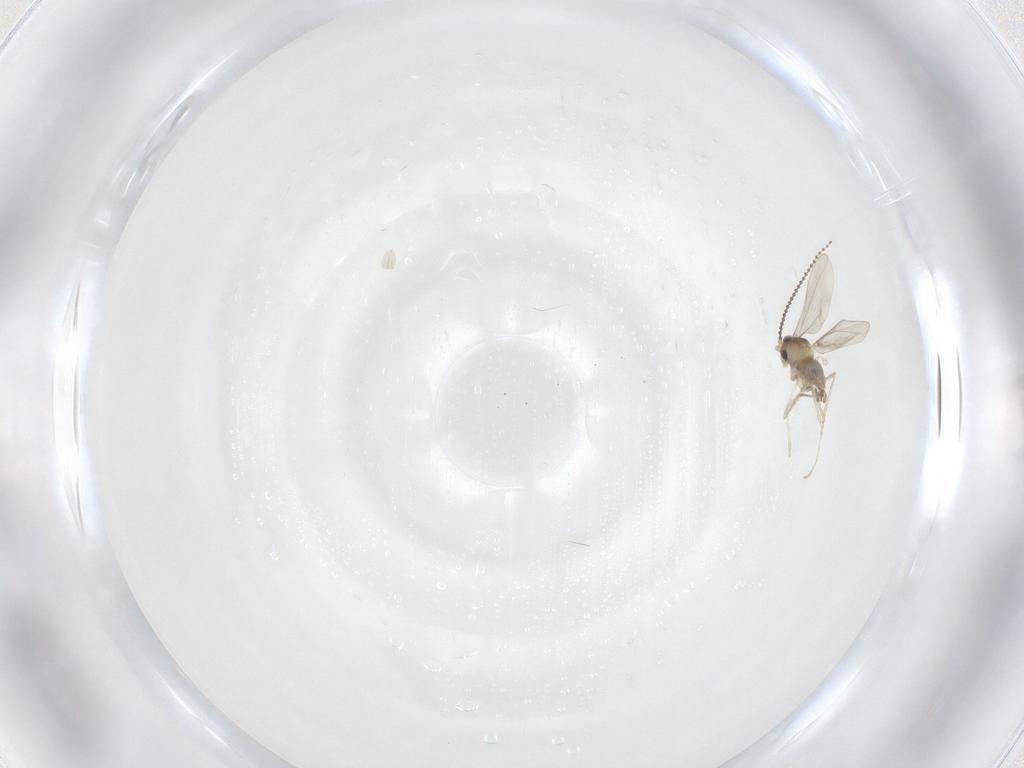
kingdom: Animalia
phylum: Arthropoda
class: Insecta
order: Diptera
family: Cecidomyiidae
